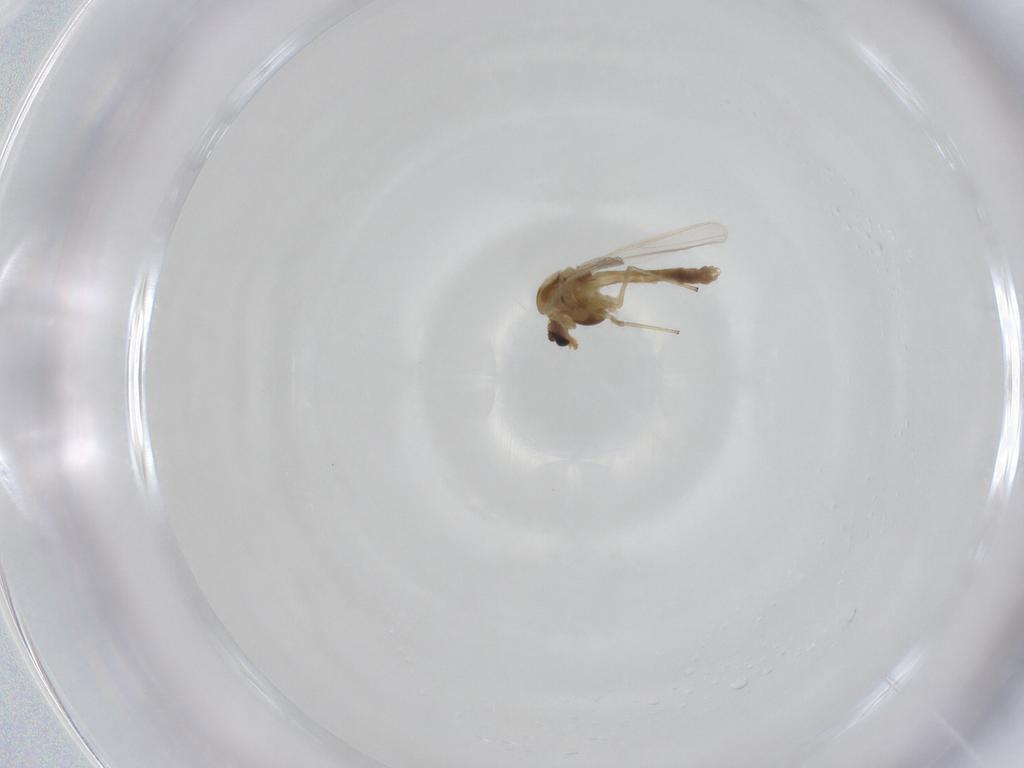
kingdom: Animalia
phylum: Arthropoda
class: Insecta
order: Diptera
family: Chironomidae
